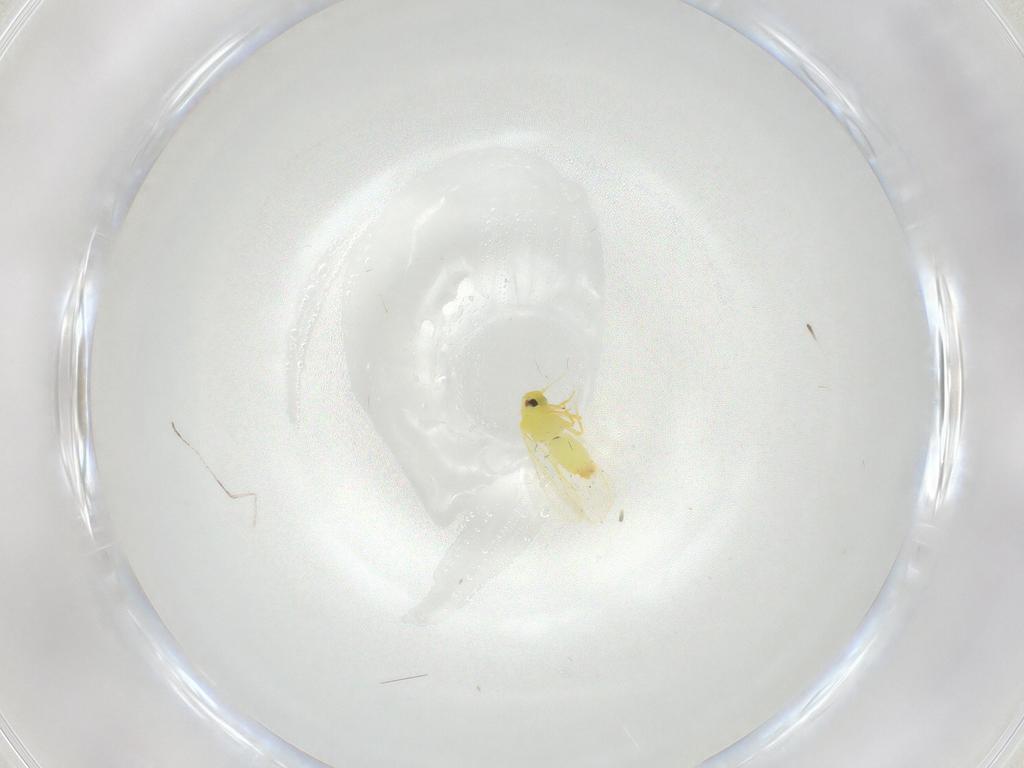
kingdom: Animalia
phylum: Arthropoda
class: Insecta
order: Hemiptera
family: Aleyrodidae
